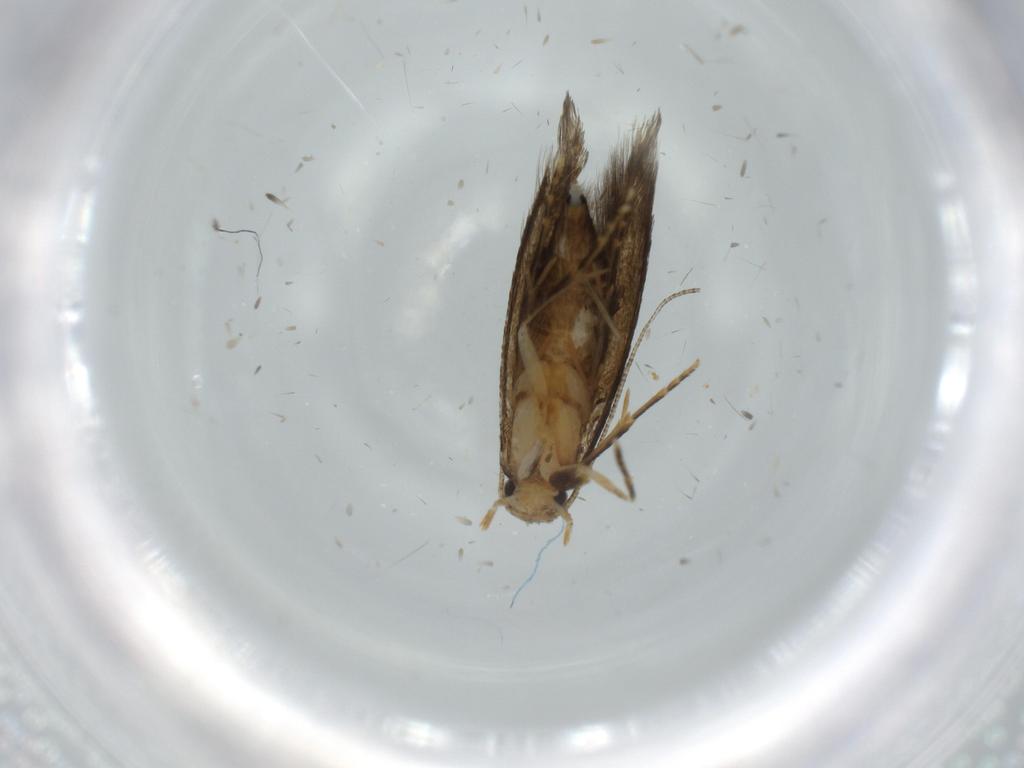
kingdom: Animalia
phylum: Arthropoda
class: Insecta
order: Lepidoptera
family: Tineidae
